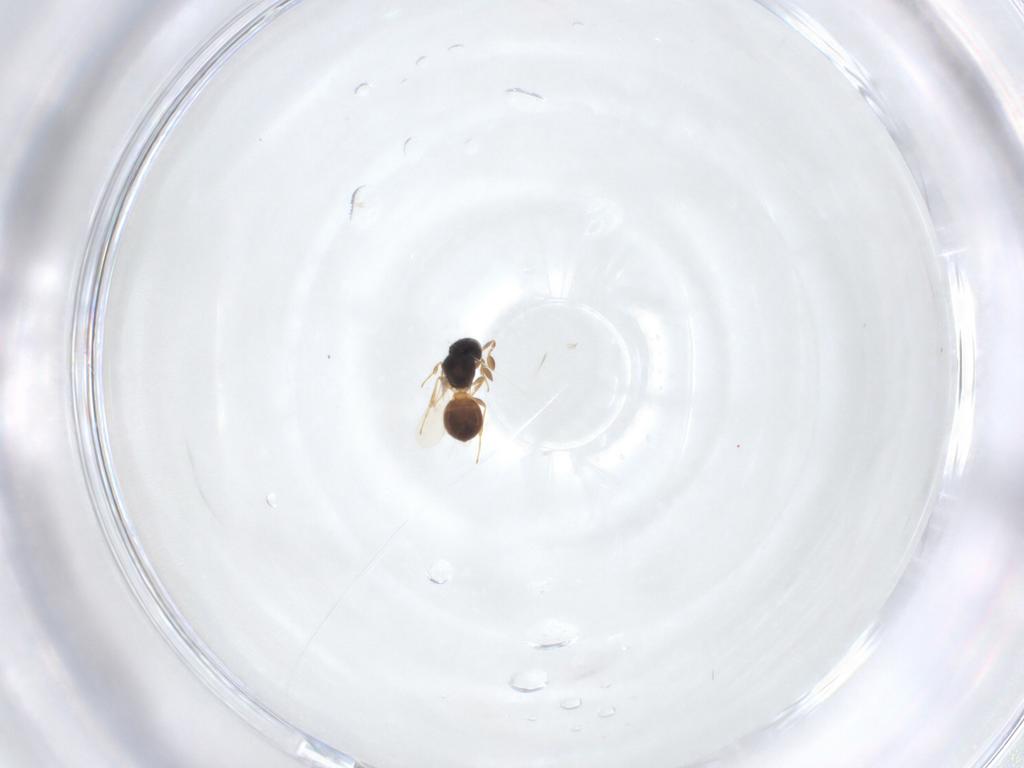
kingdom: Animalia
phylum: Arthropoda
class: Insecta
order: Hymenoptera
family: Scelionidae
